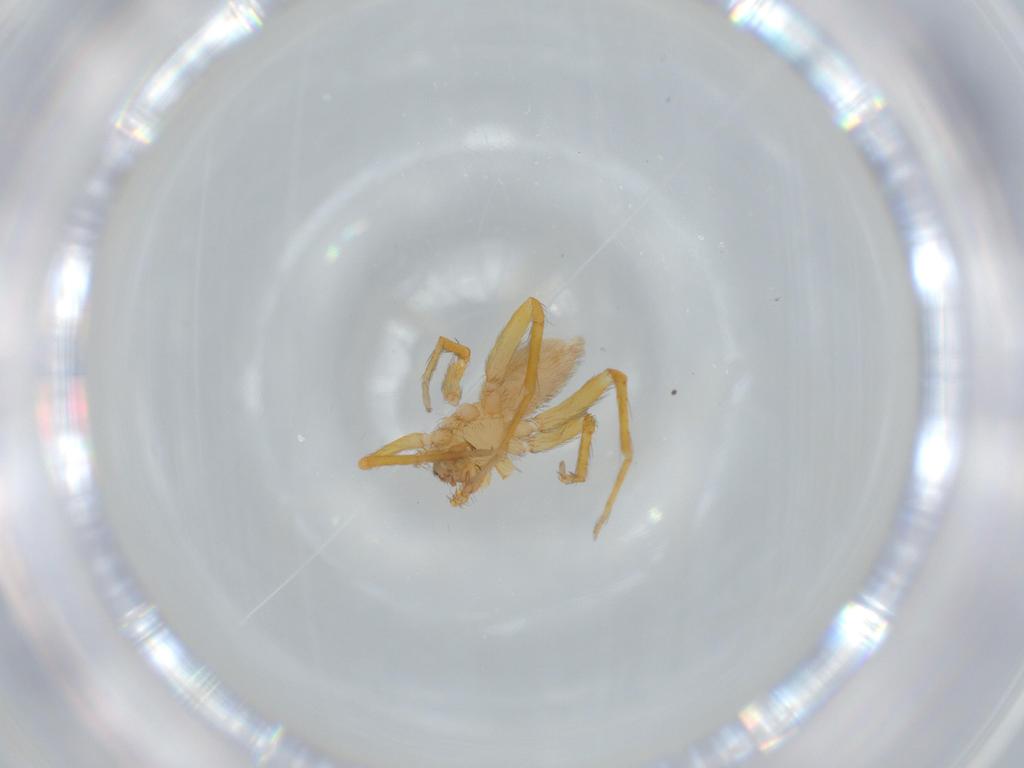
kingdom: Animalia
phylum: Arthropoda
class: Arachnida
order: Araneae
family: Oonopidae
